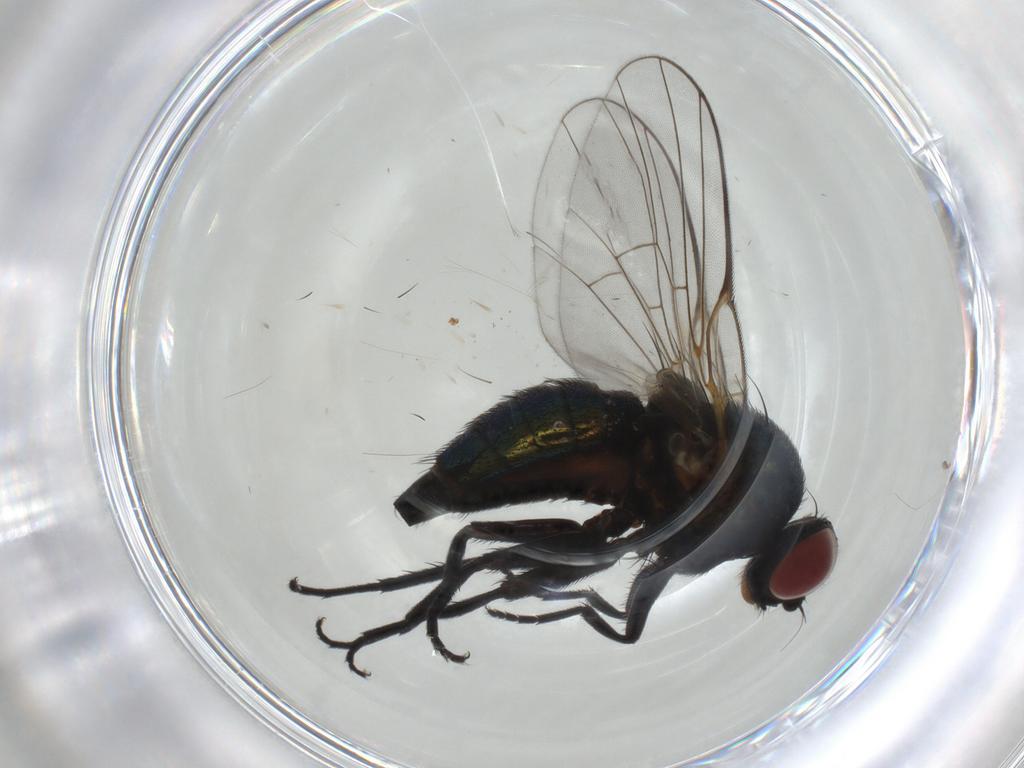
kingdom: Animalia
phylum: Arthropoda
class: Insecta
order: Diptera
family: Agromyzidae
